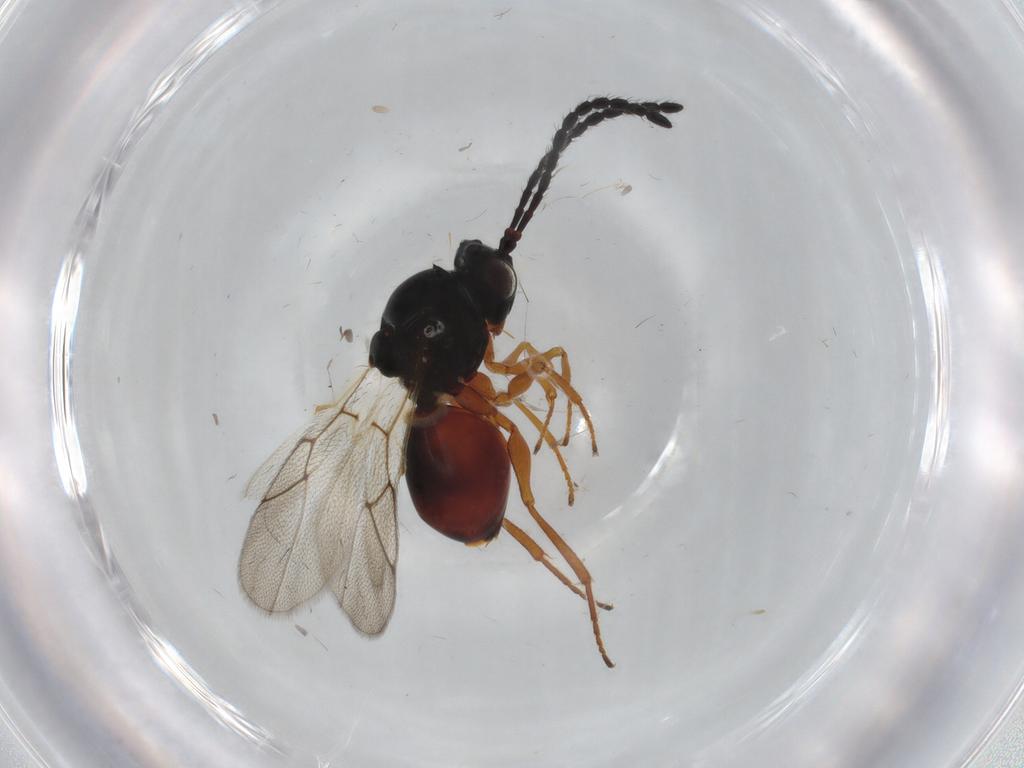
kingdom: Animalia
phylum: Arthropoda
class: Insecta
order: Hymenoptera
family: Figitidae
